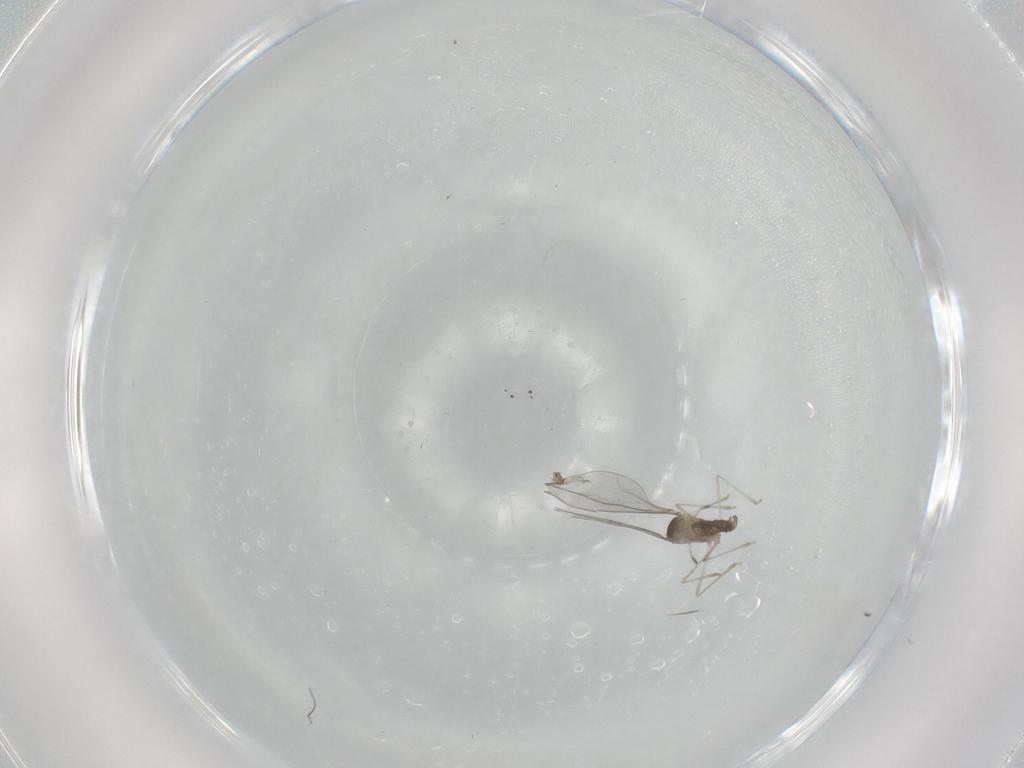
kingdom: Animalia
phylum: Arthropoda
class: Insecta
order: Diptera
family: Cecidomyiidae
